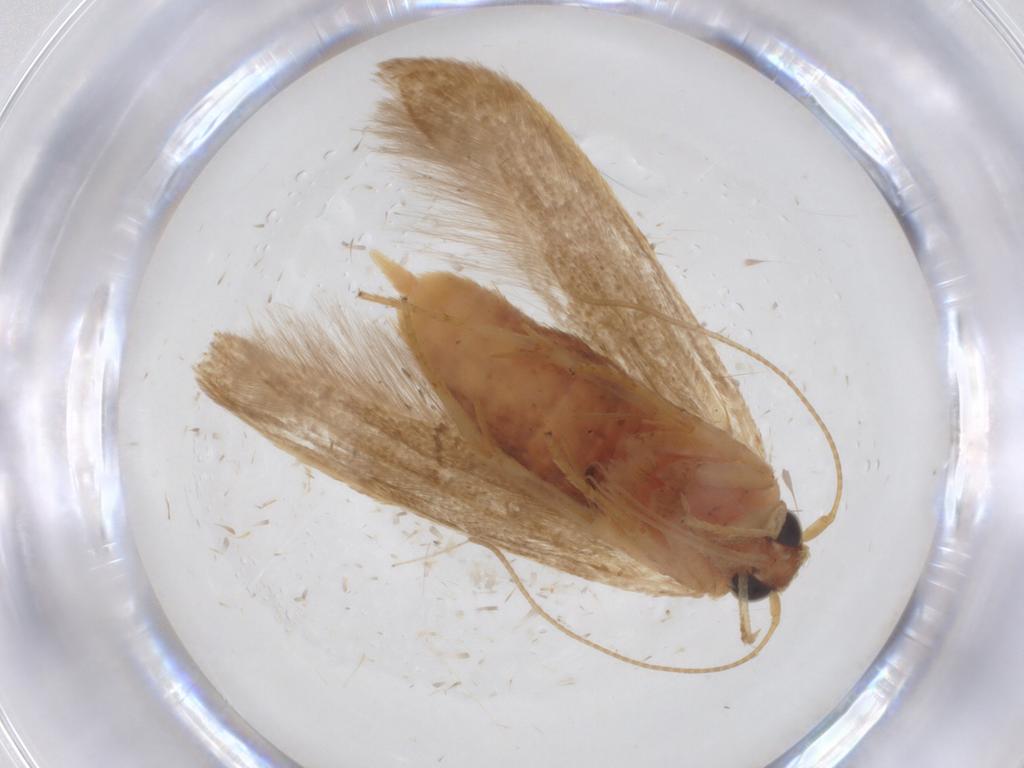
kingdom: Animalia
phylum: Arthropoda
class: Insecta
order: Lepidoptera
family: Blastobasidae
